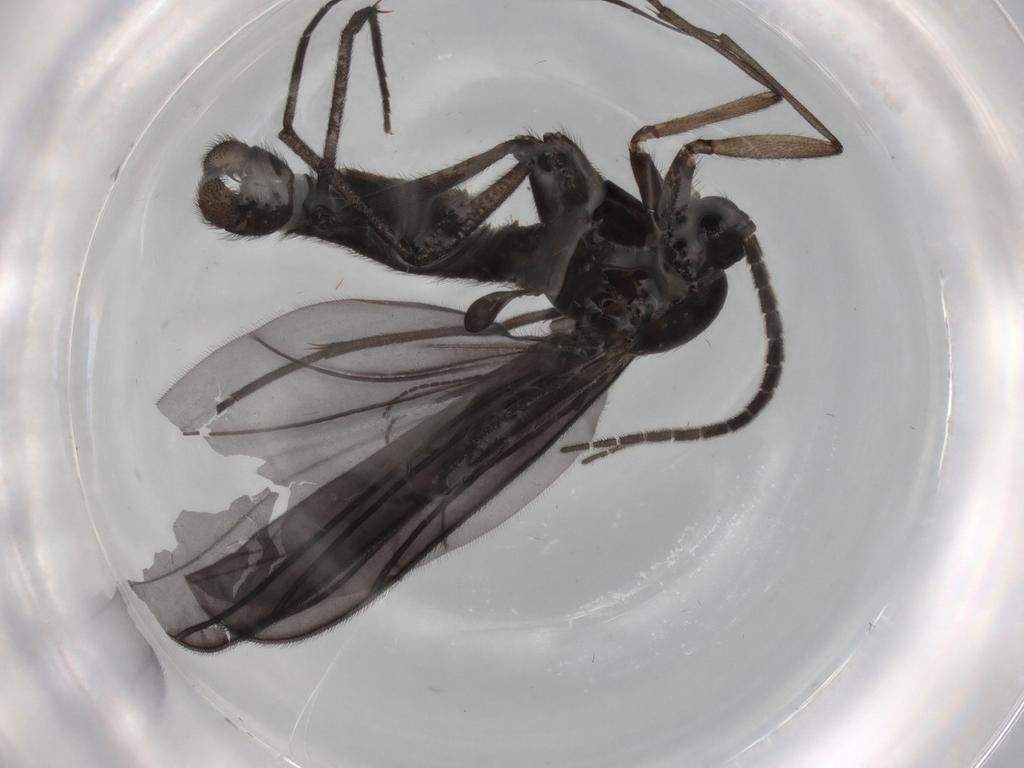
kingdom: Animalia
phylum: Arthropoda
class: Insecta
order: Diptera
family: Sciaridae
